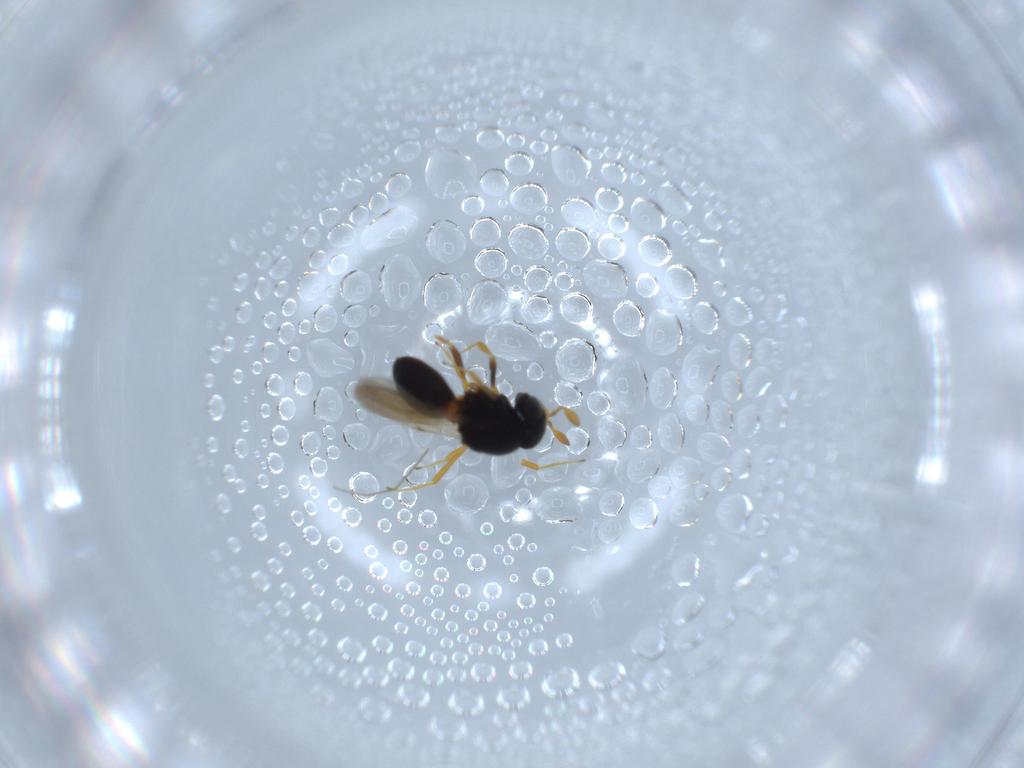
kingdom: Animalia
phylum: Arthropoda
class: Insecta
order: Hymenoptera
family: Scelionidae
